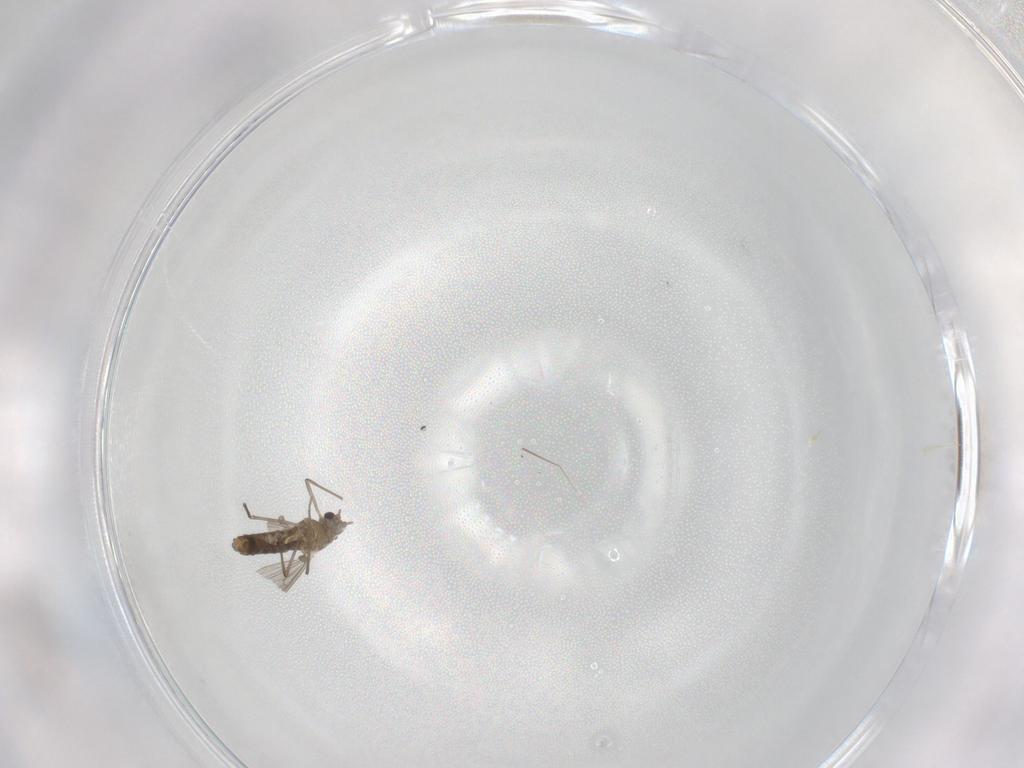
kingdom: Animalia
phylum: Arthropoda
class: Insecta
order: Diptera
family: Chironomidae
